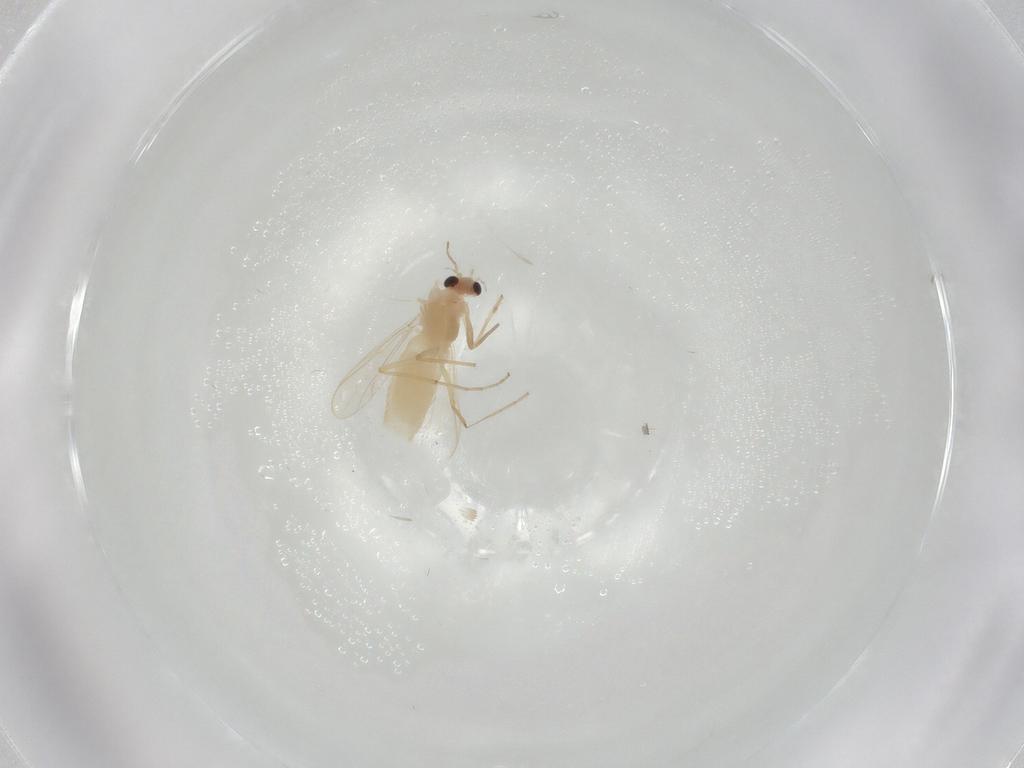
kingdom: Animalia
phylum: Arthropoda
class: Insecta
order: Diptera
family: Chironomidae
